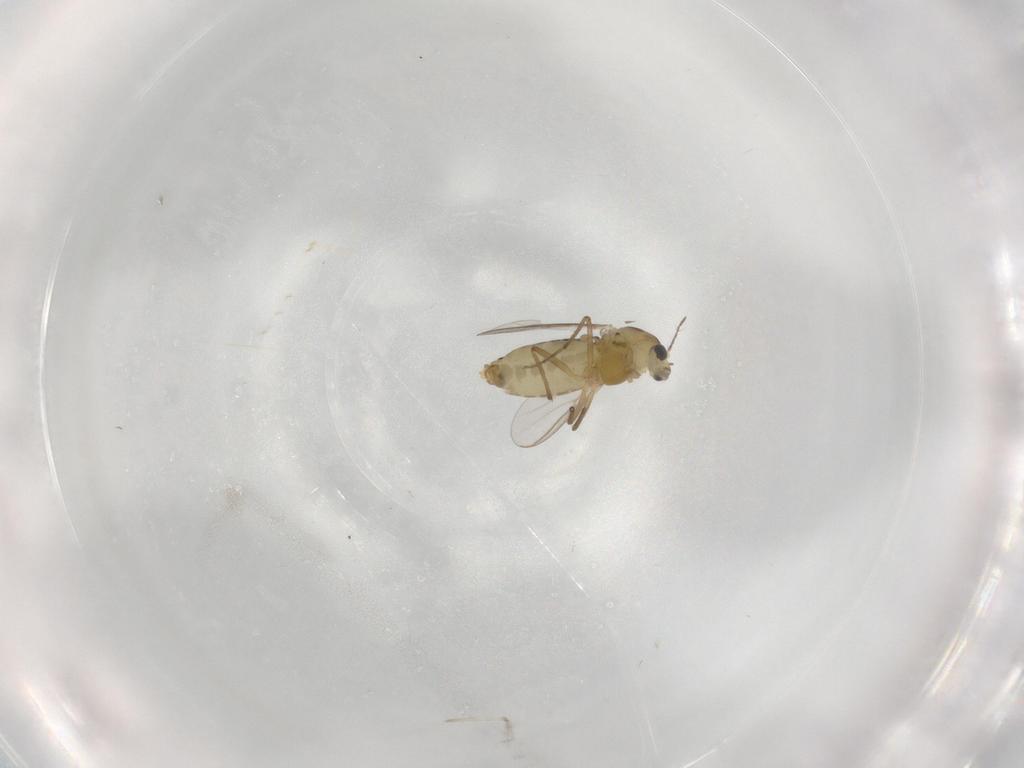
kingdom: Animalia
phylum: Arthropoda
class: Insecta
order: Diptera
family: Chironomidae
